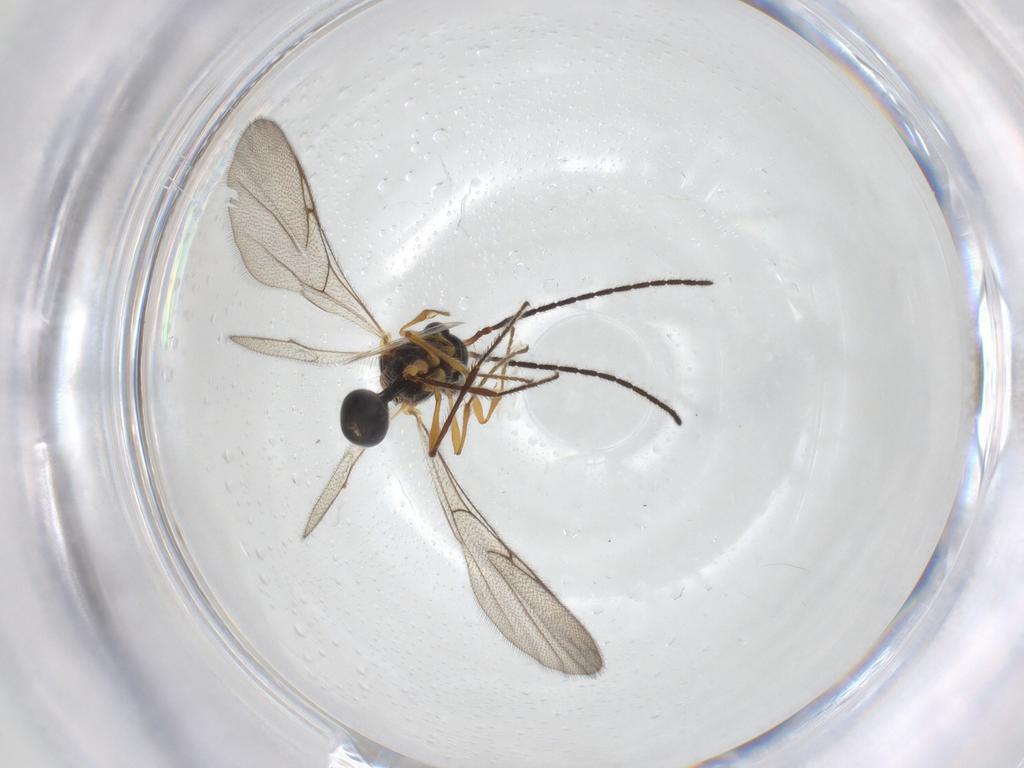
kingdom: Animalia
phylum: Arthropoda
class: Insecta
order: Hymenoptera
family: Diapriidae
